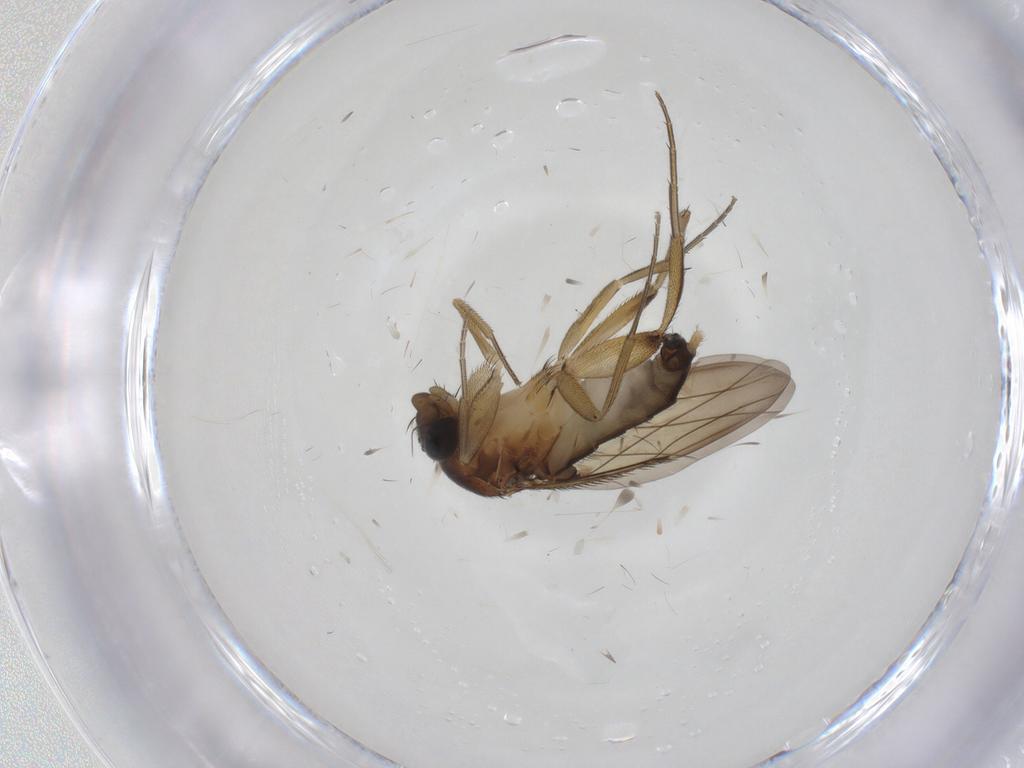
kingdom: Animalia
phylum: Arthropoda
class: Insecta
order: Diptera
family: Phoridae
